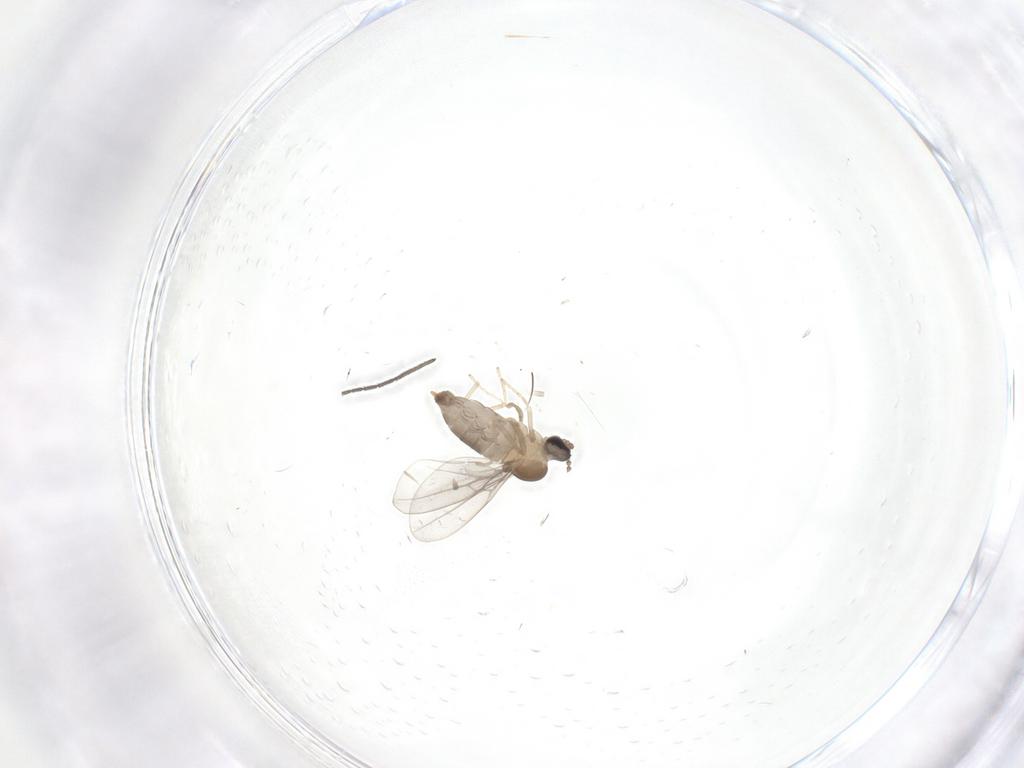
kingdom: Animalia
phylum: Arthropoda
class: Insecta
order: Diptera
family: Cecidomyiidae
